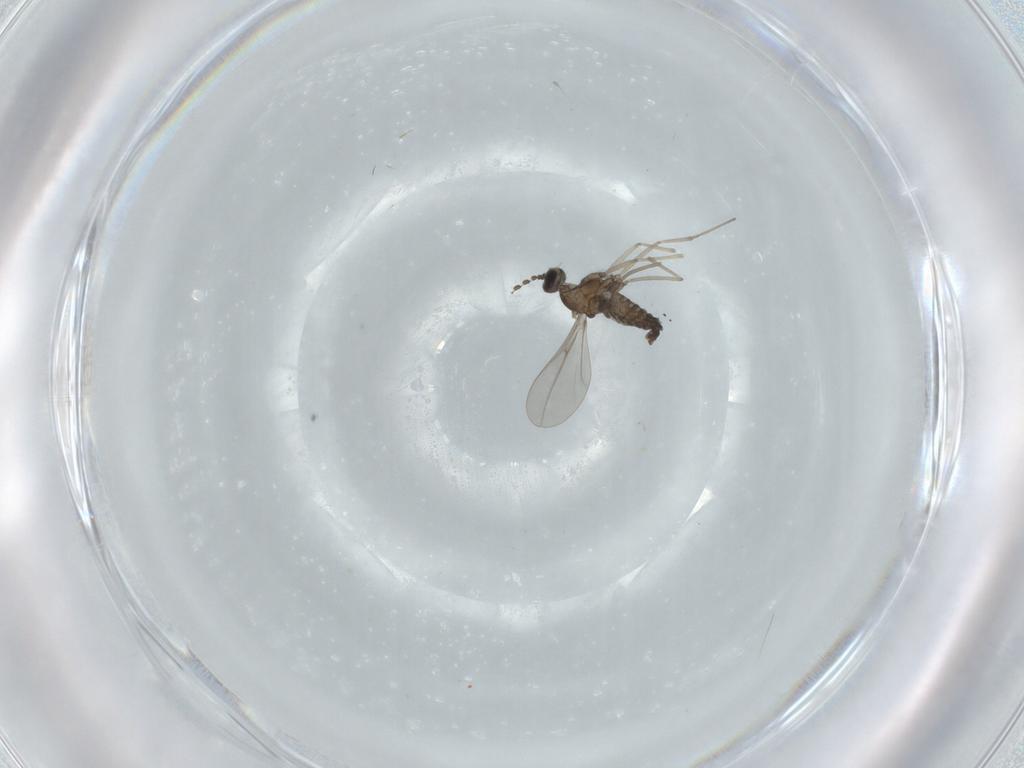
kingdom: Animalia
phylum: Arthropoda
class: Insecta
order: Diptera
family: Cecidomyiidae
